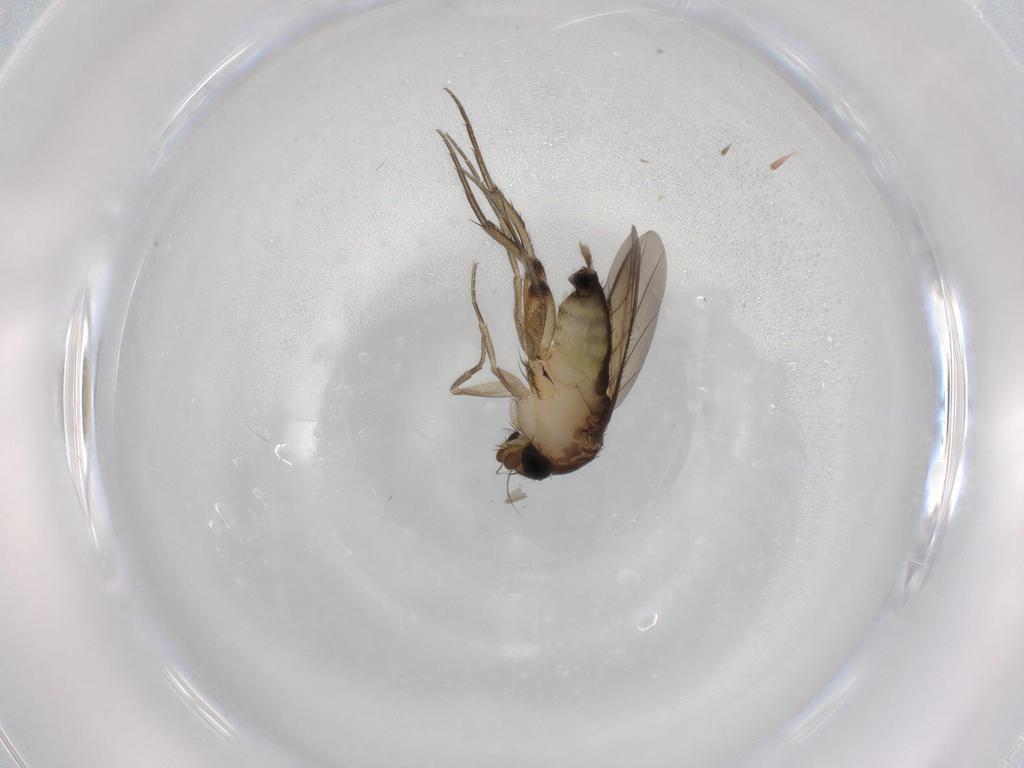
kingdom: Animalia
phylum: Arthropoda
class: Insecta
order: Diptera
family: Phoridae
